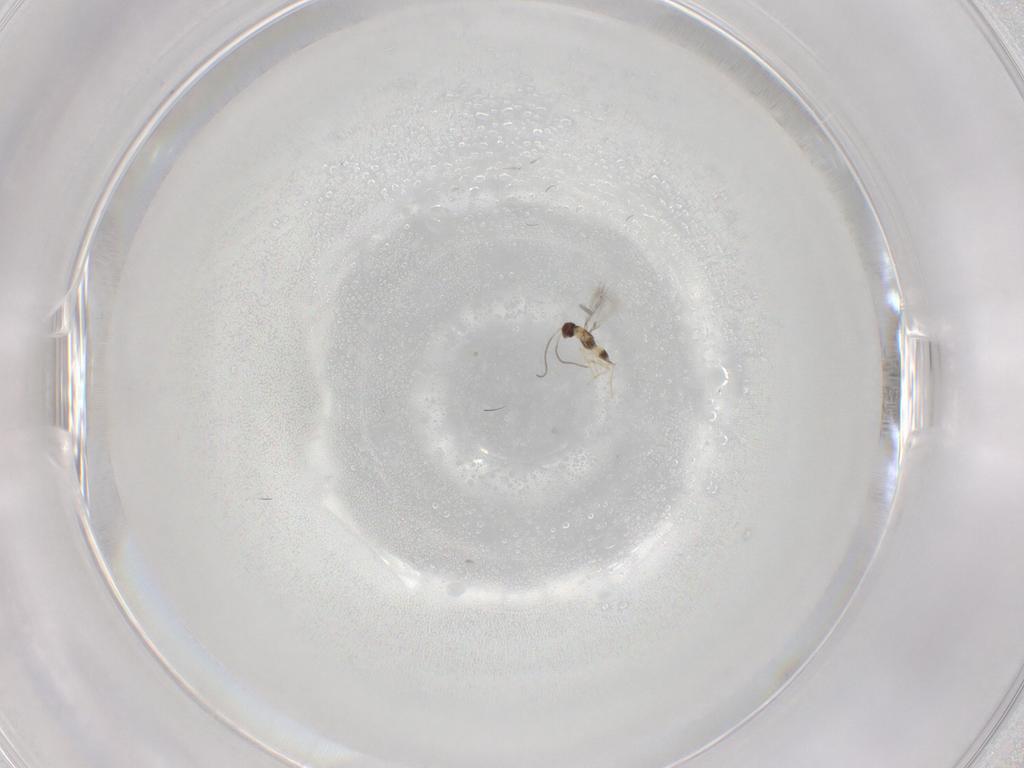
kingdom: Animalia
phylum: Arthropoda
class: Insecta
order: Hymenoptera
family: Mymaridae
